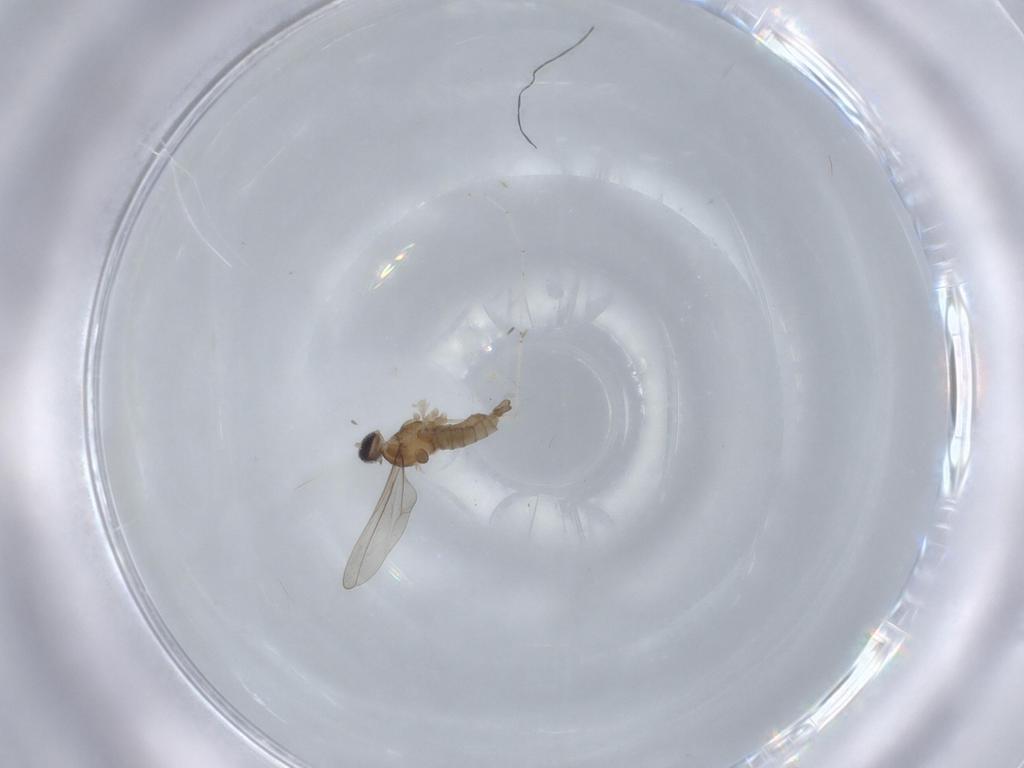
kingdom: Animalia
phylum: Arthropoda
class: Insecta
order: Diptera
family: Cecidomyiidae
